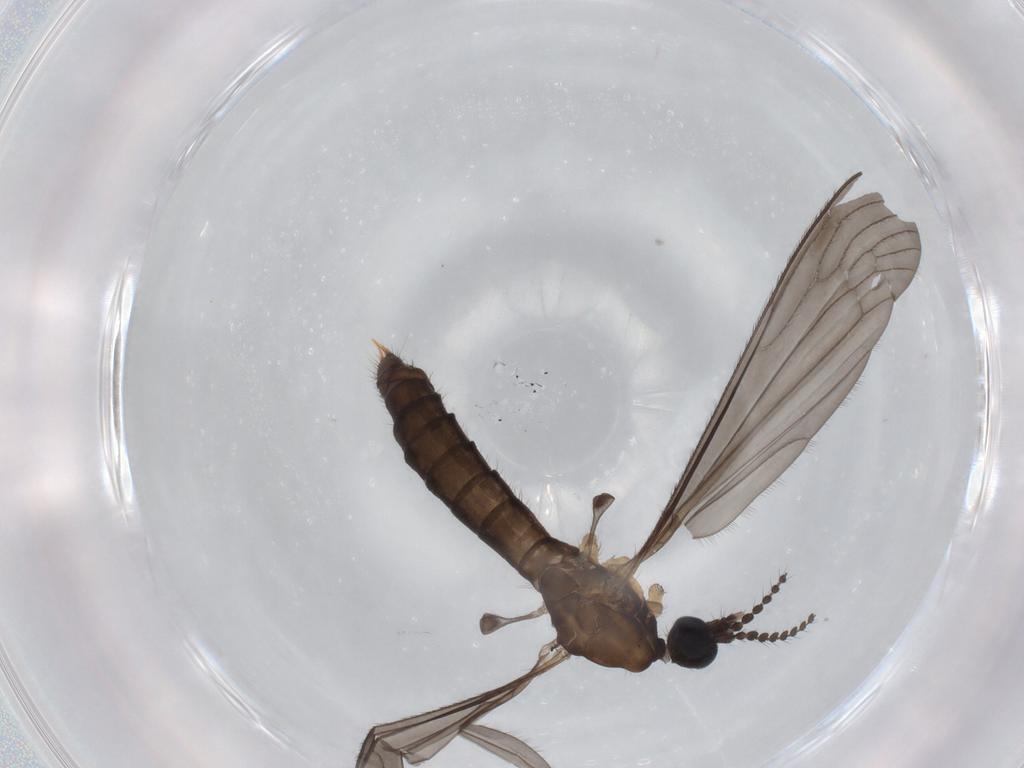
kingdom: Animalia
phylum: Arthropoda
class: Insecta
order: Diptera
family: Limoniidae
